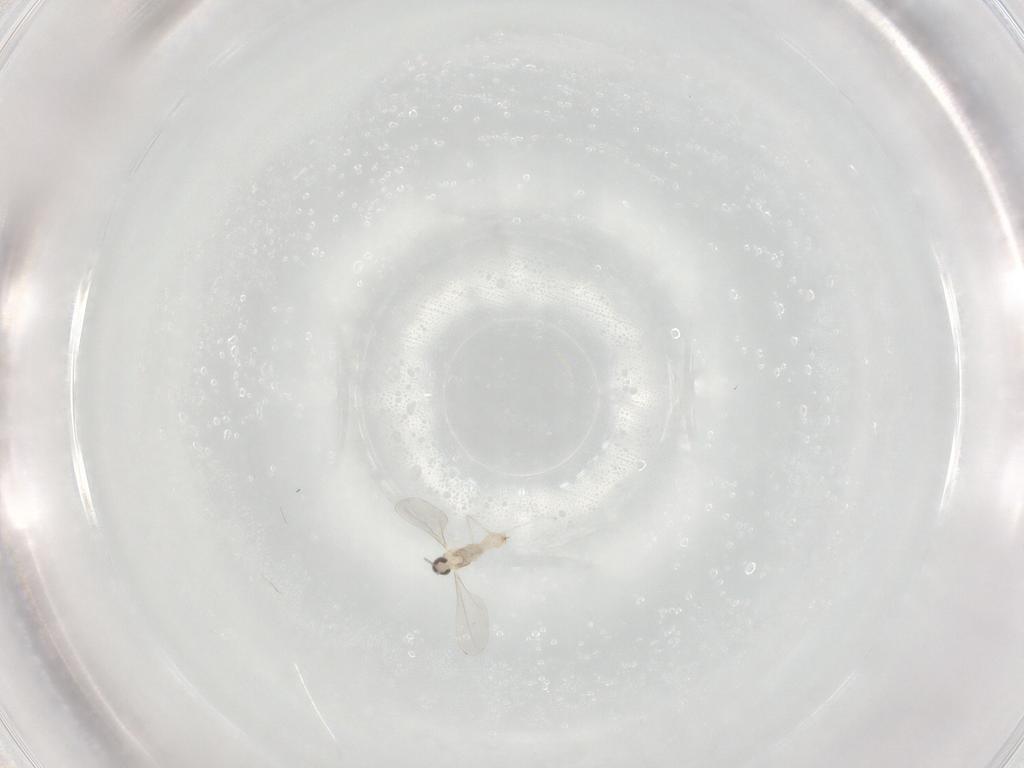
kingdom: Animalia
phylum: Arthropoda
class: Insecta
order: Diptera
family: Cecidomyiidae
